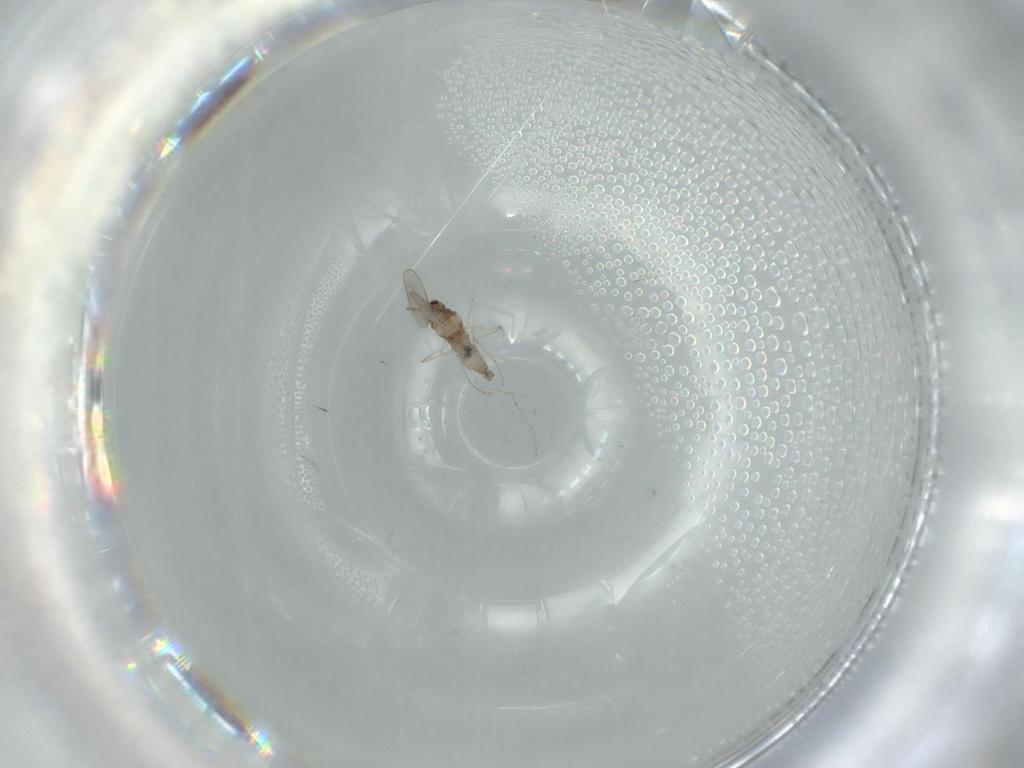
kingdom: Animalia
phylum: Arthropoda
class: Insecta
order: Diptera
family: Cecidomyiidae
